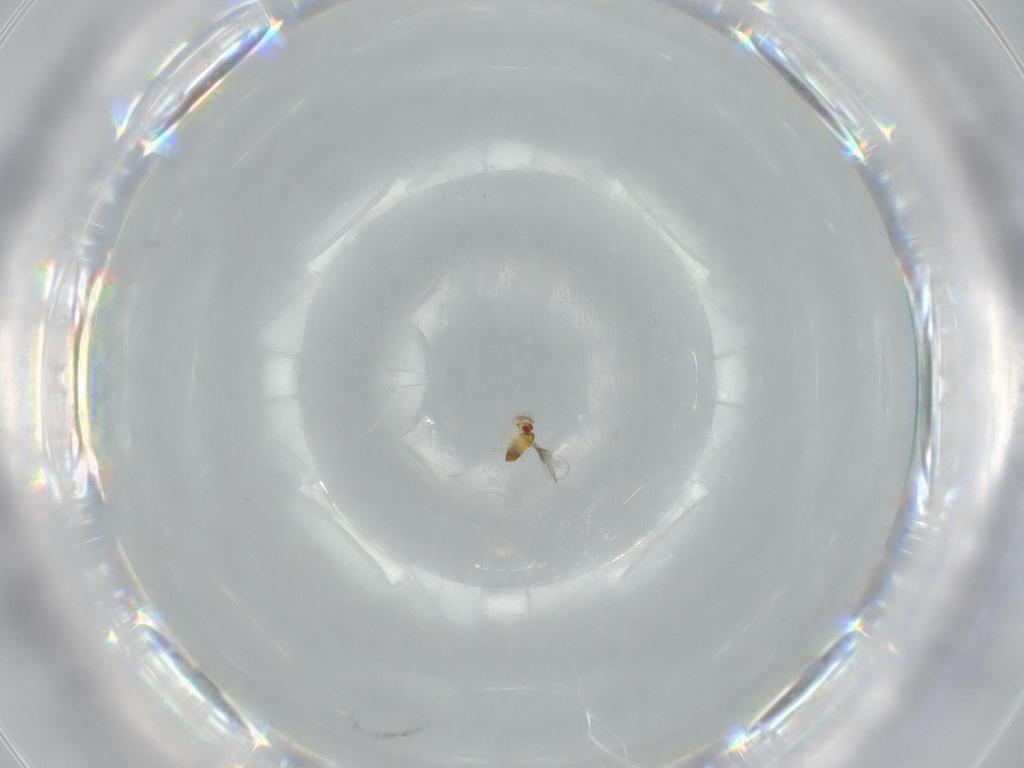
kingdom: Animalia
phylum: Arthropoda
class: Insecta
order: Hymenoptera
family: Trichogrammatidae
